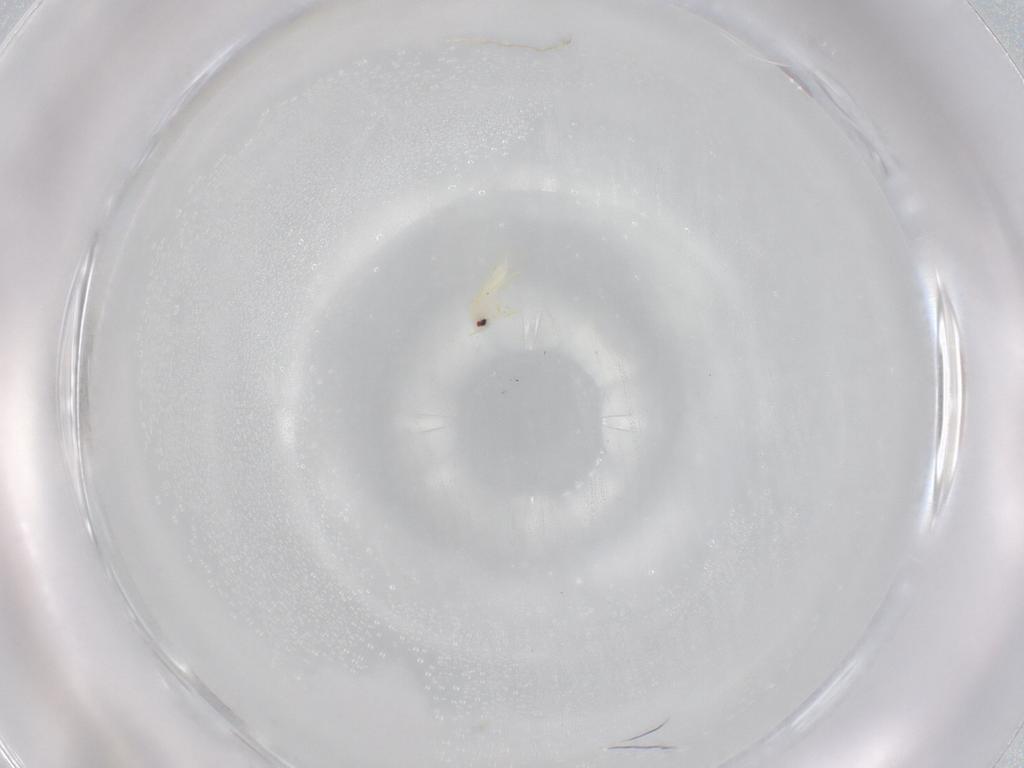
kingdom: Animalia
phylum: Arthropoda
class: Insecta
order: Hemiptera
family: Aleyrodidae
